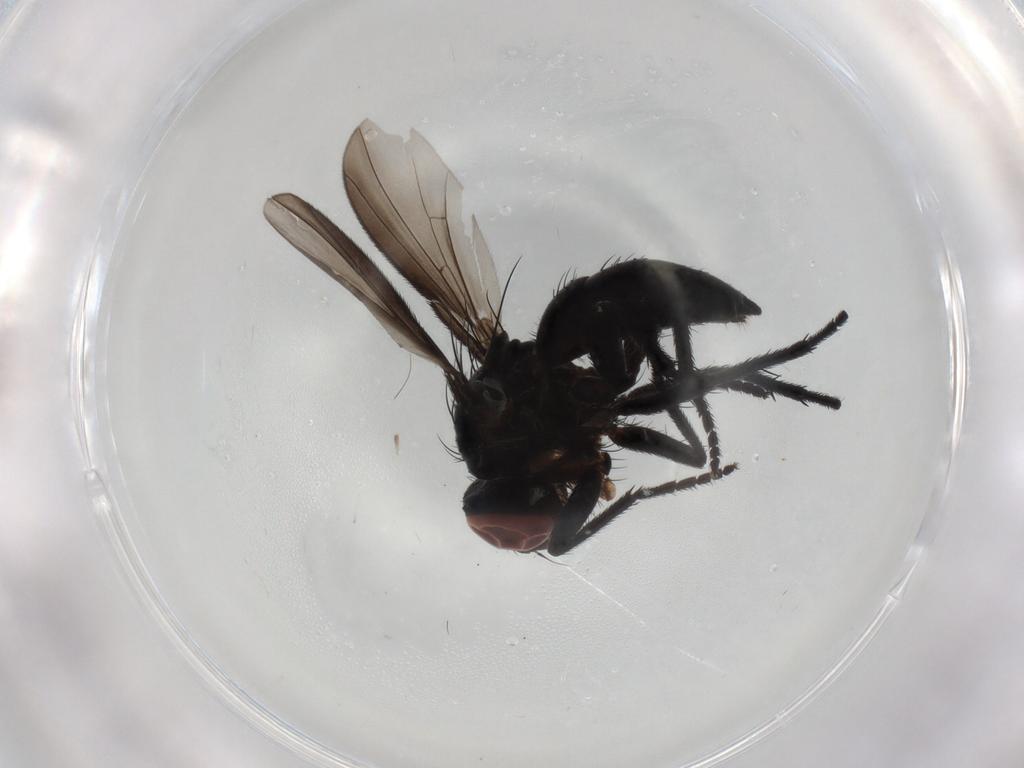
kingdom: Animalia
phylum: Arthropoda
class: Insecta
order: Diptera
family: Tachinidae
